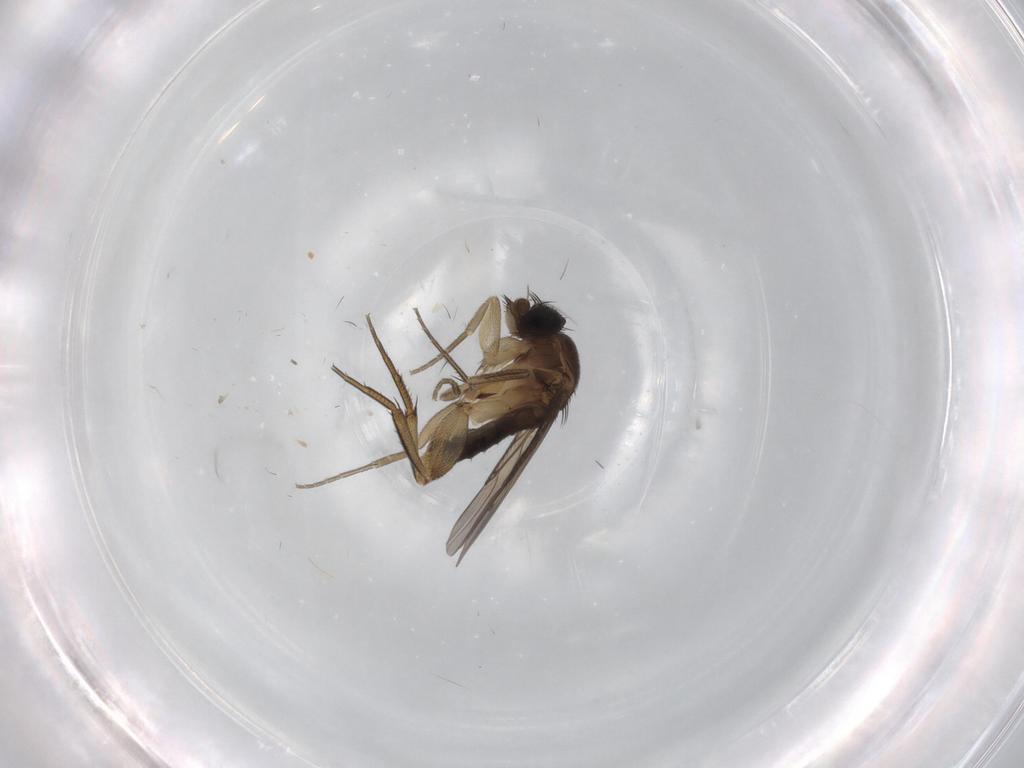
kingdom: Animalia
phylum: Arthropoda
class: Insecta
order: Diptera
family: Phoridae
